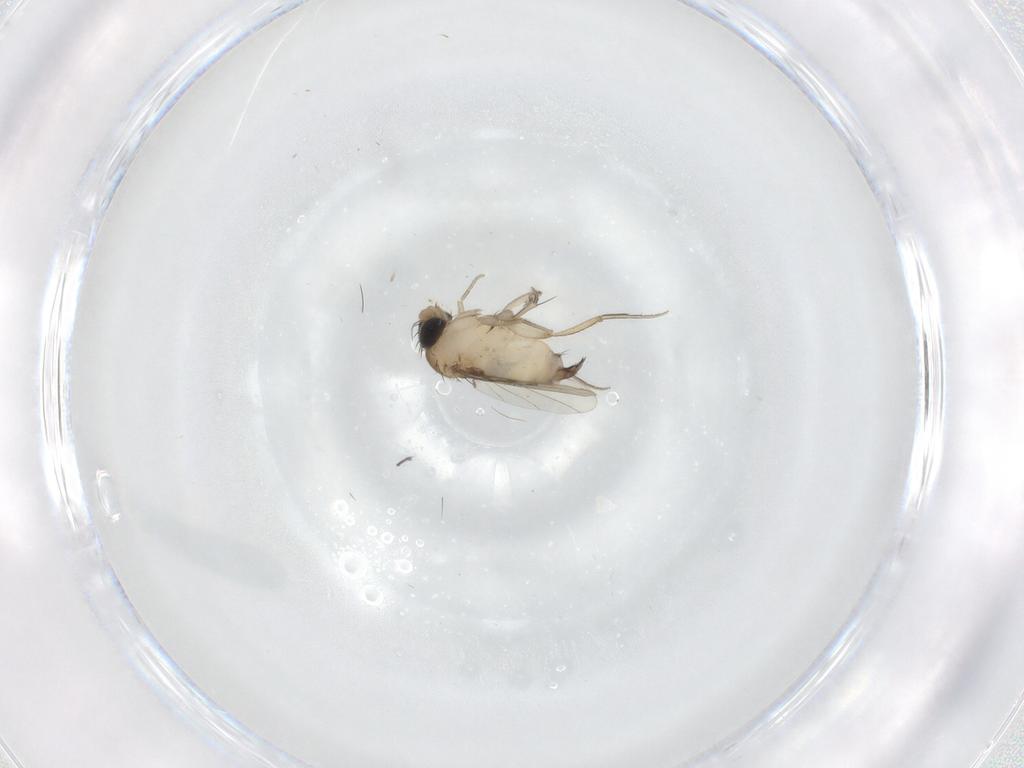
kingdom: Animalia
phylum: Arthropoda
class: Insecta
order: Diptera
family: Phoridae
